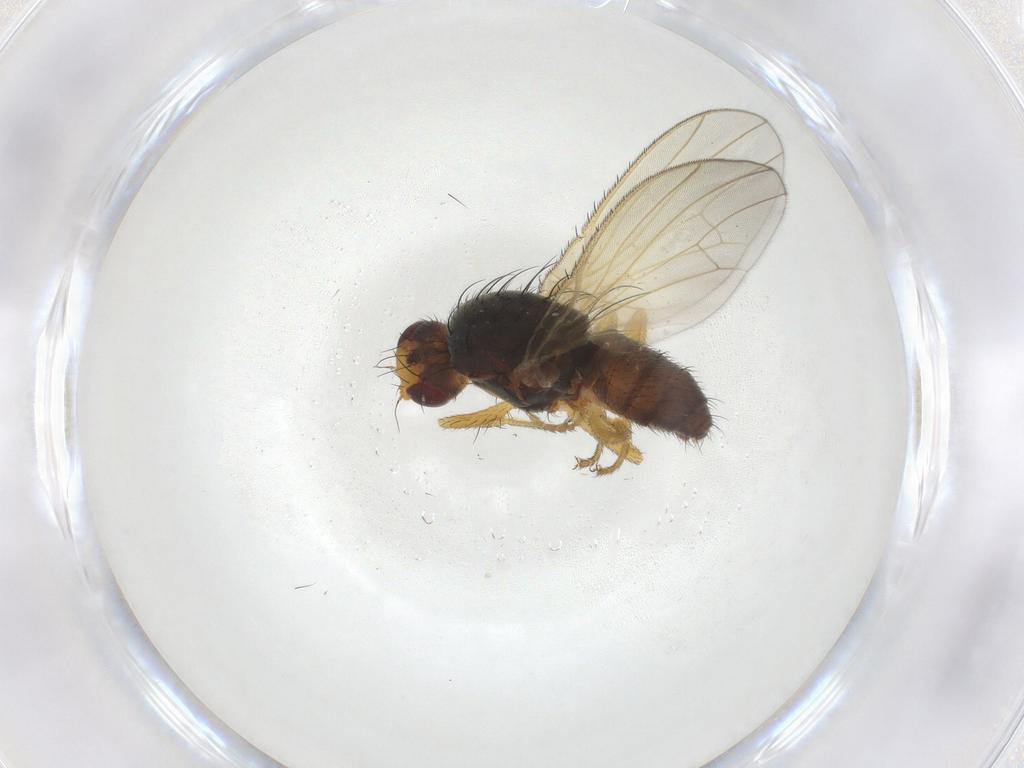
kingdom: Animalia
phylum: Arthropoda
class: Insecta
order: Diptera
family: Heleomyzidae
